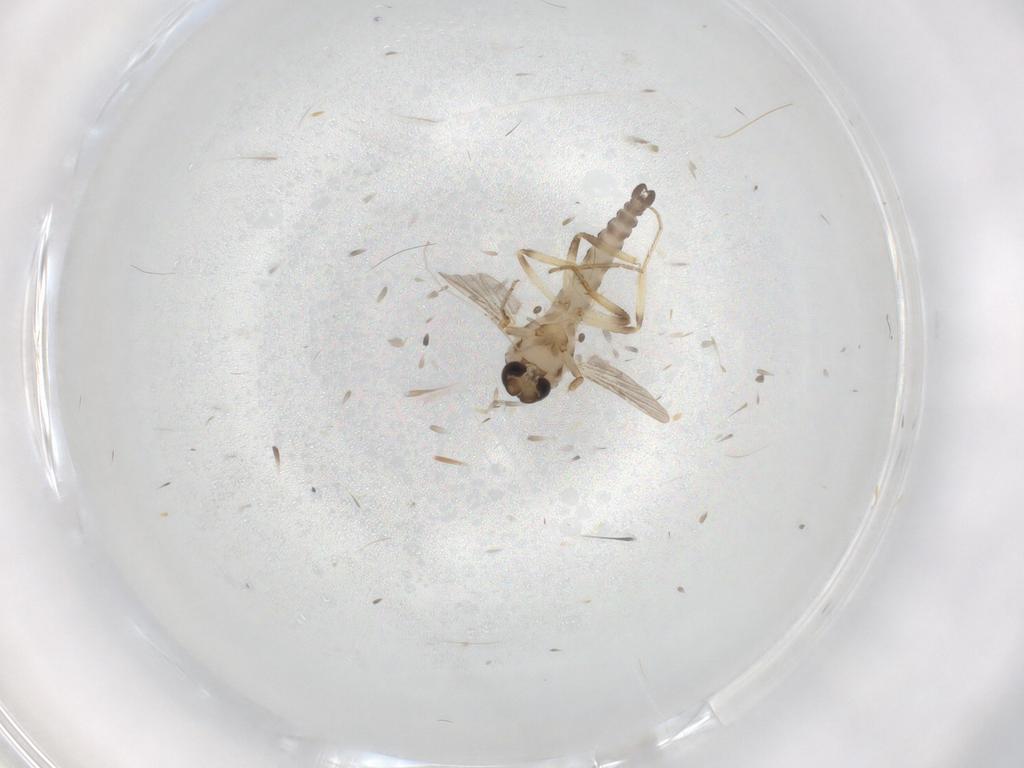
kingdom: Animalia
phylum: Arthropoda
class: Insecta
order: Diptera
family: Ceratopogonidae
